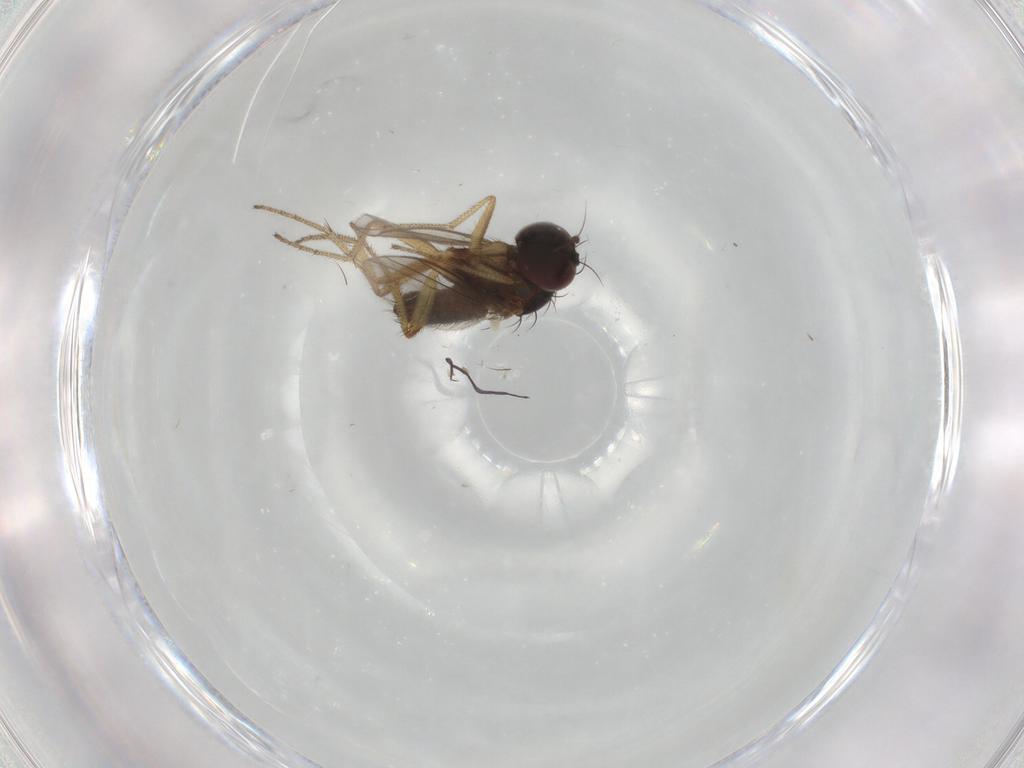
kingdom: Animalia
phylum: Arthropoda
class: Insecta
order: Diptera
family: Dolichopodidae
